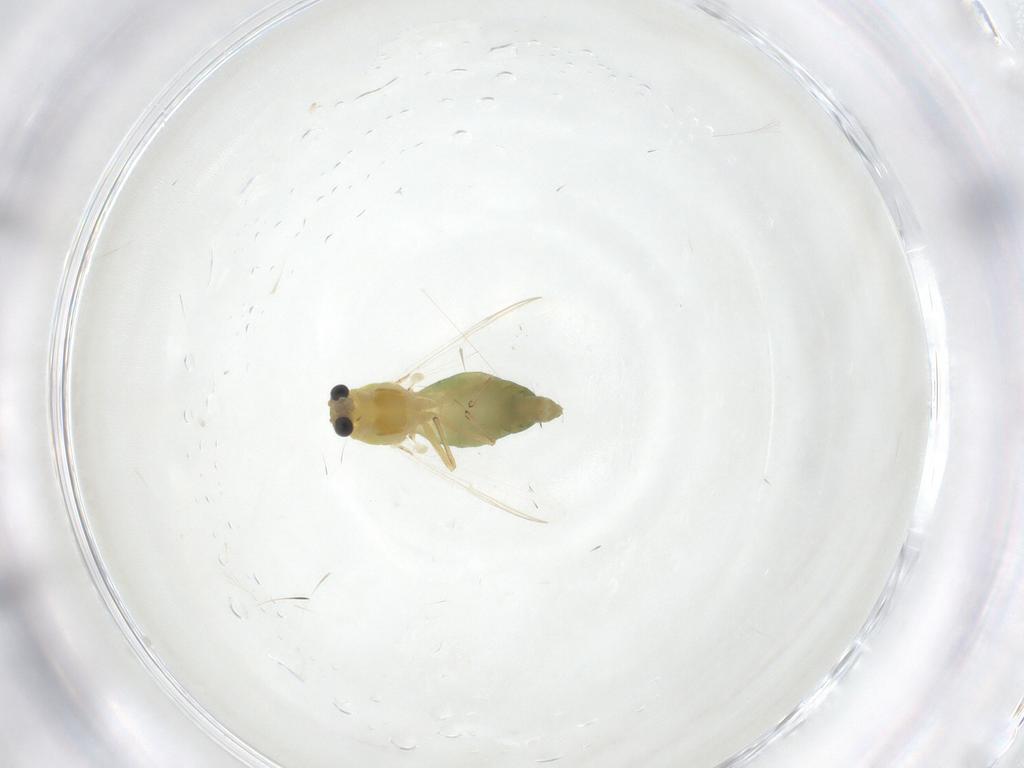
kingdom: Animalia
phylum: Arthropoda
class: Insecta
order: Diptera
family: Chironomidae
